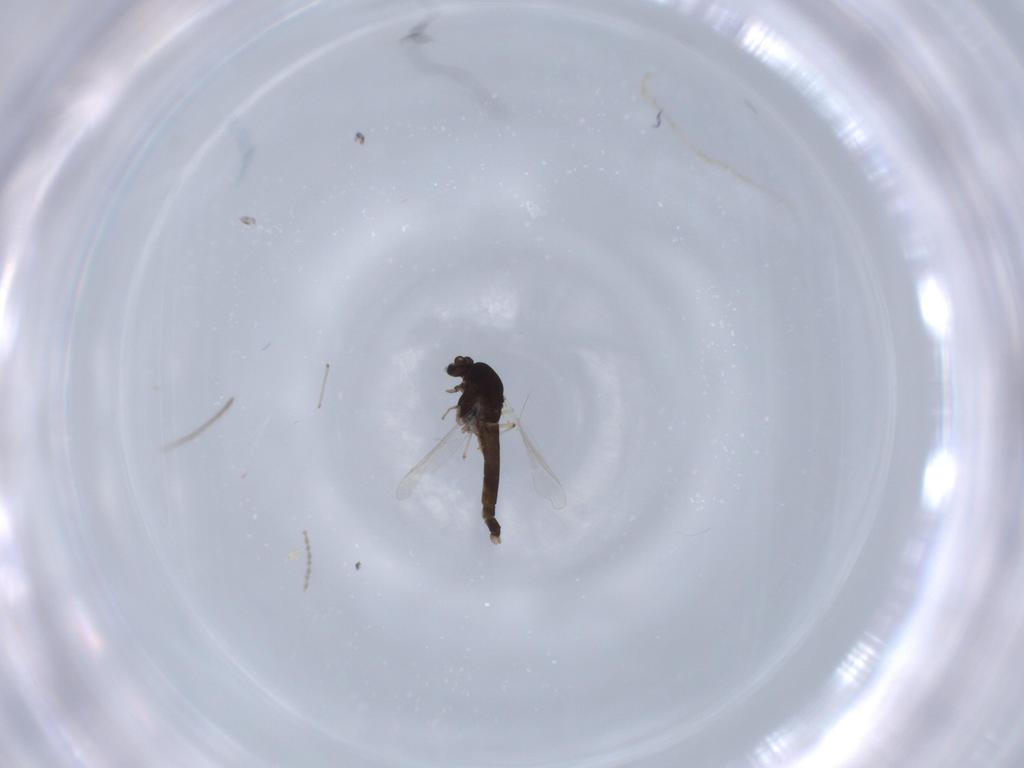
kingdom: Animalia
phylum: Arthropoda
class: Insecta
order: Diptera
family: Chironomidae
